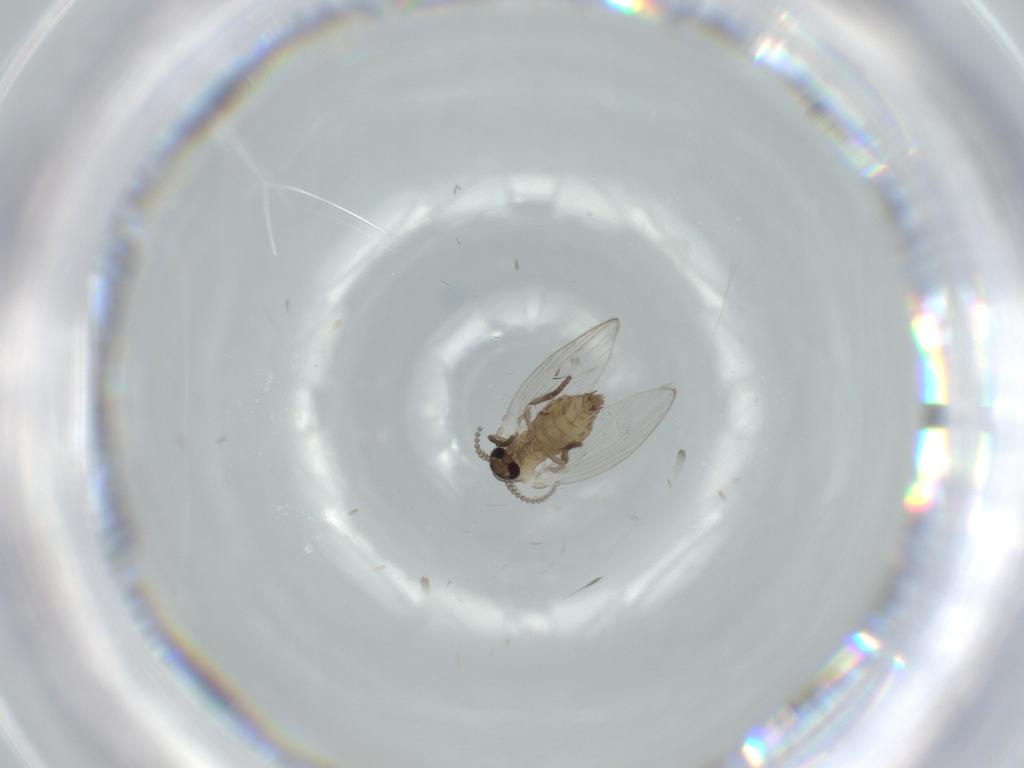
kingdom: Animalia
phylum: Arthropoda
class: Insecta
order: Diptera
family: Psychodidae
